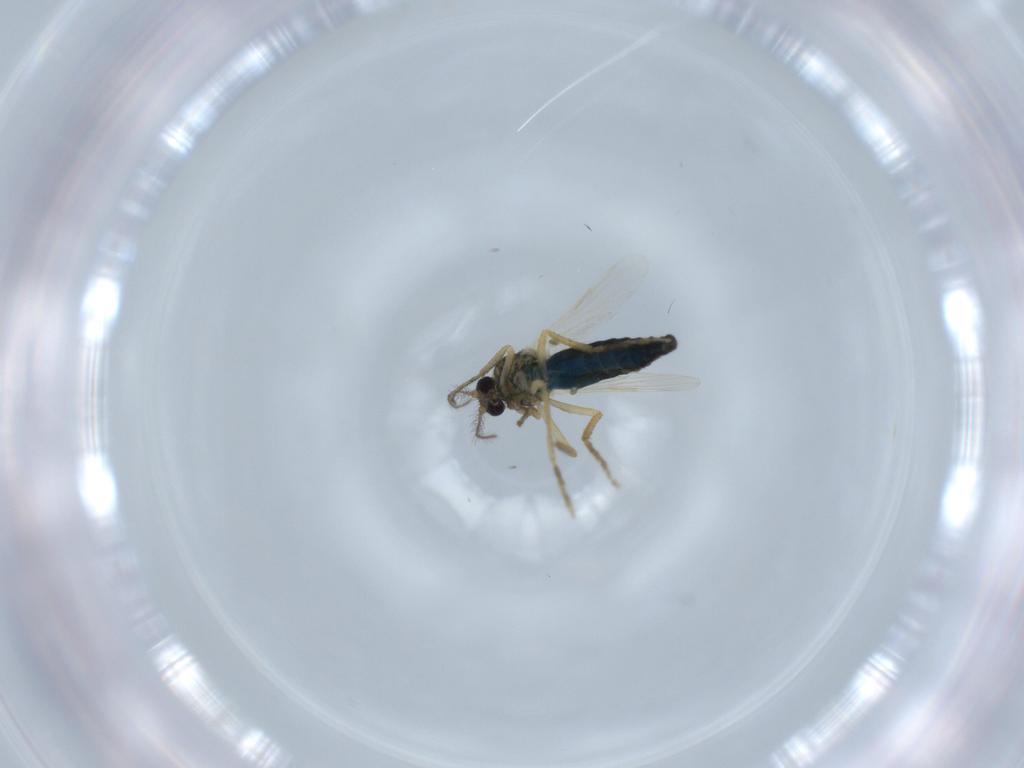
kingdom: Animalia
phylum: Arthropoda
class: Insecta
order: Diptera
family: Ceratopogonidae
